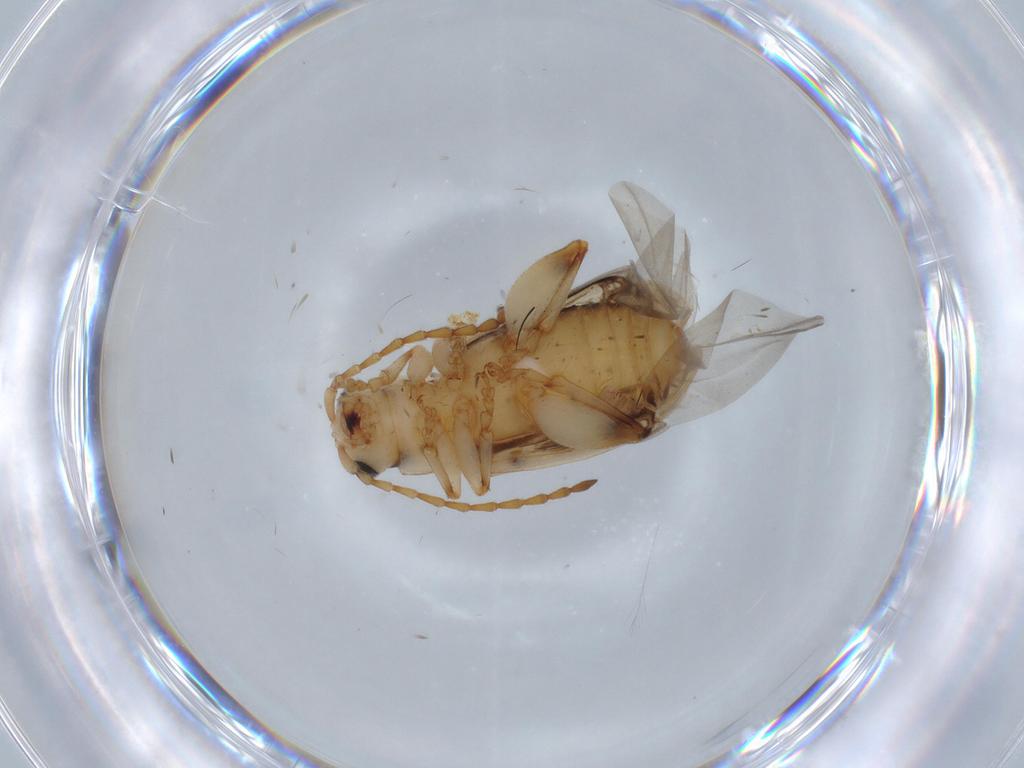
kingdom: Animalia
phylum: Arthropoda
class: Insecta
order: Coleoptera
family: Chrysomelidae
